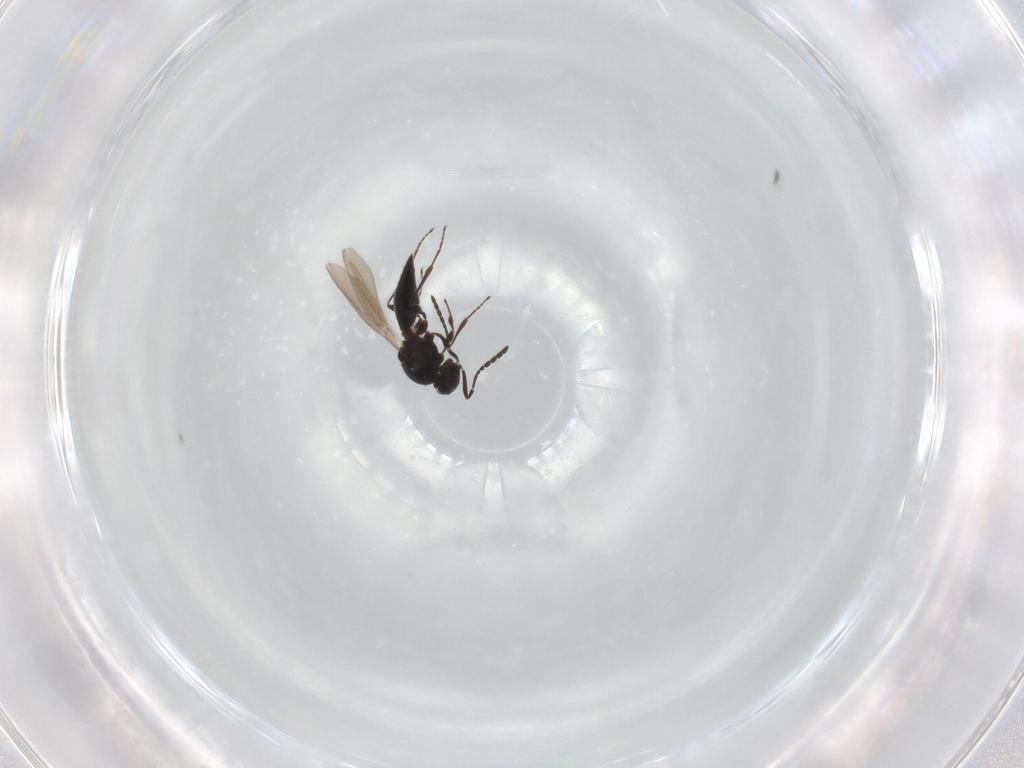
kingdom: Animalia
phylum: Arthropoda
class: Insecta
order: Hymenoptera
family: Platygastridae
